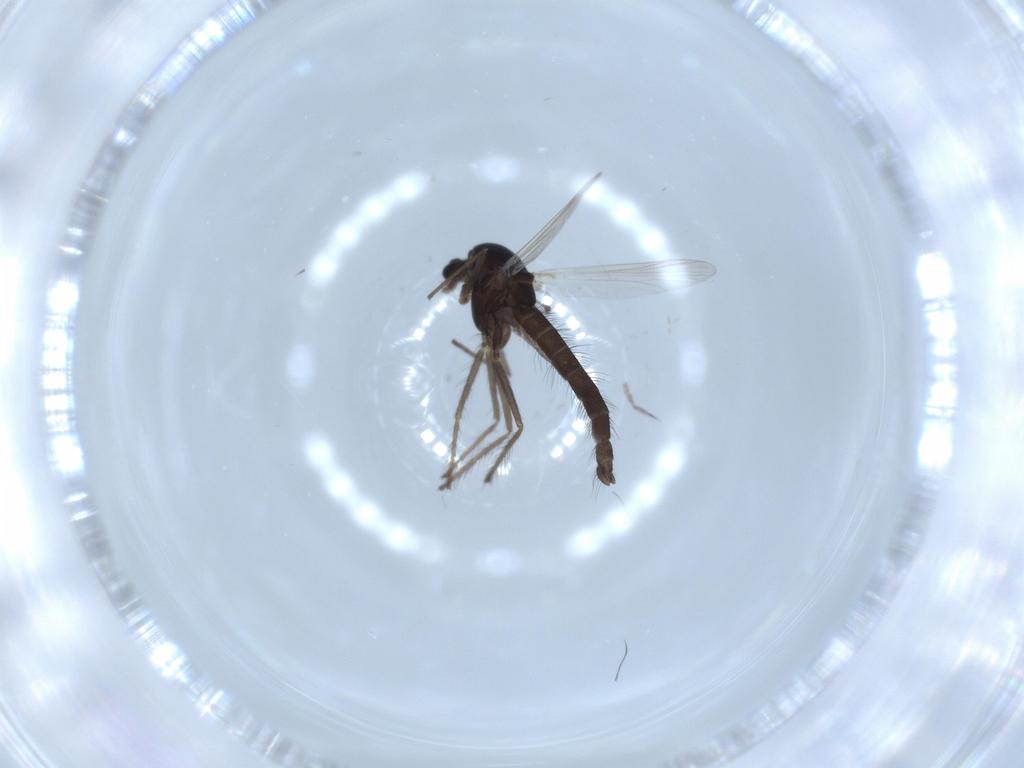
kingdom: Animalia
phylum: Arthropoda
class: Insecta
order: Diptera
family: Chironomidae
